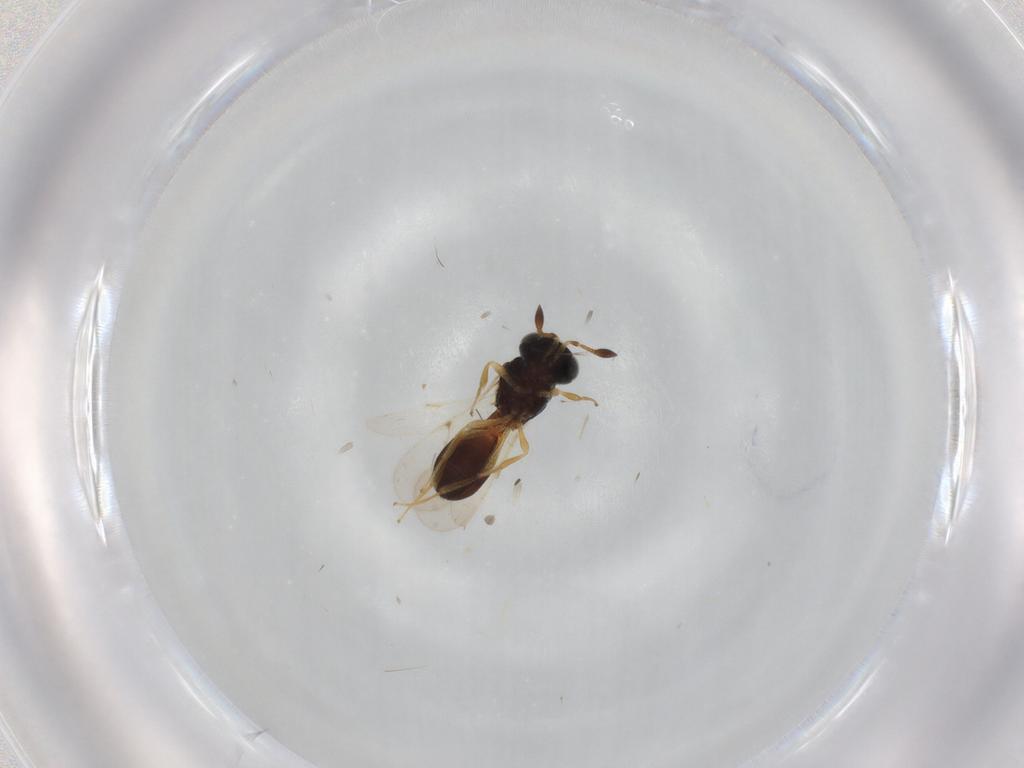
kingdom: Animalia
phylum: Arthropoda
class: Insecta
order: Hymenoptera
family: Scelionidae
